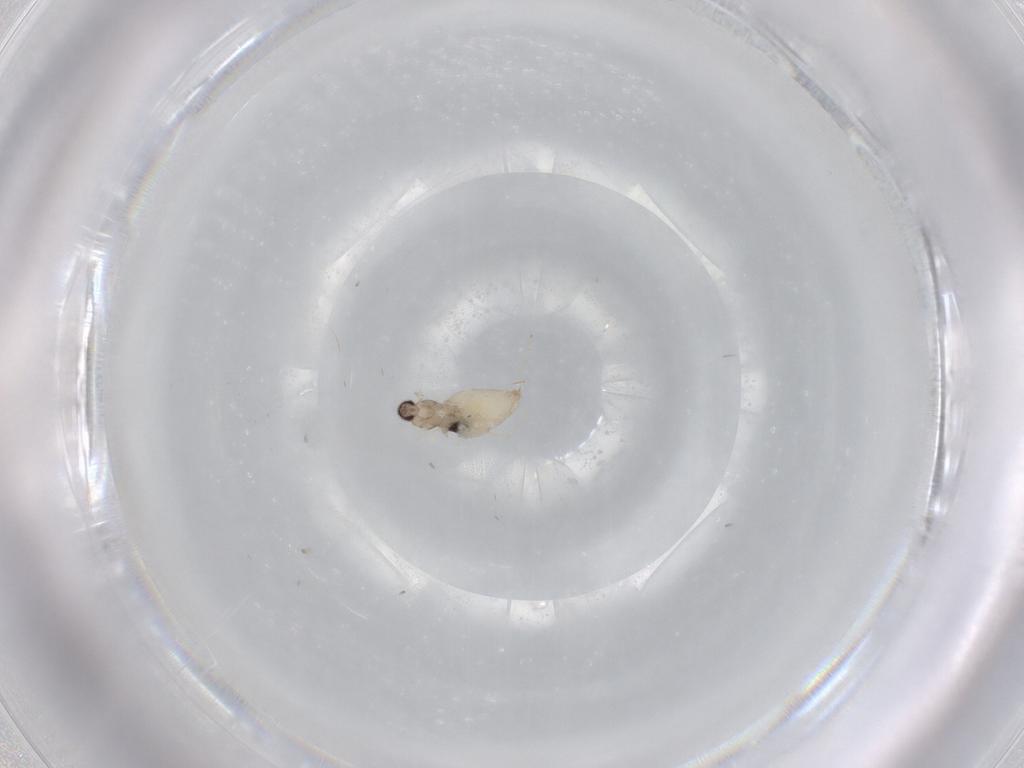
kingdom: Animalia
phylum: Arthropoda
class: Insecta
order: Diptera
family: Cecidomyiidae
